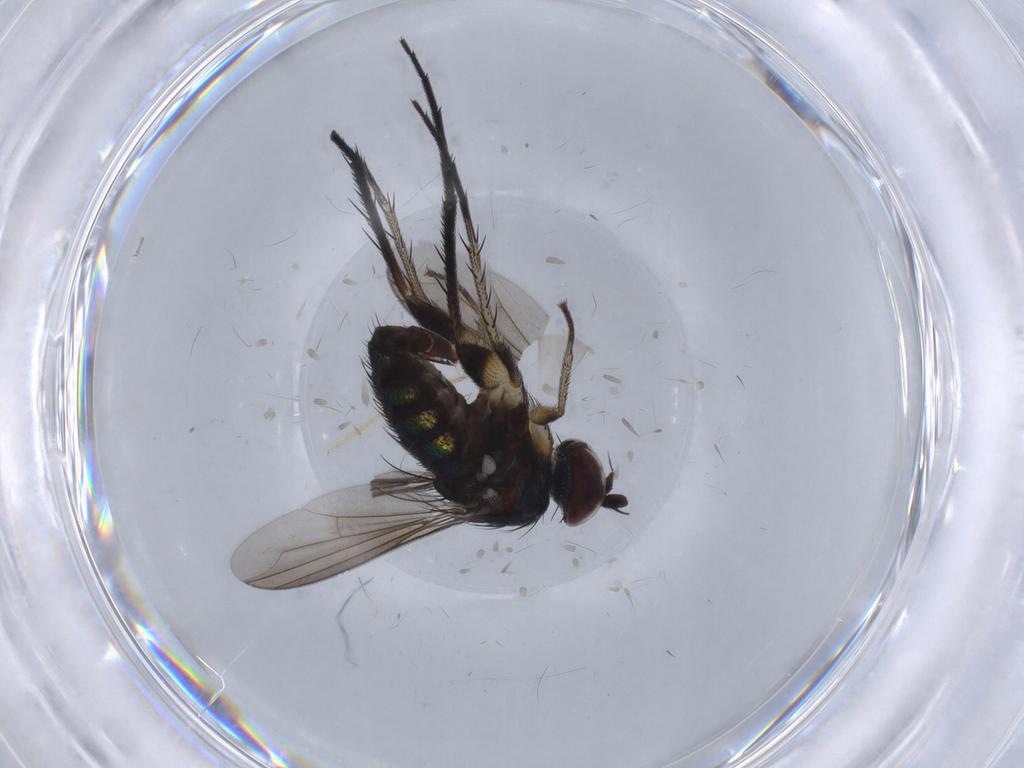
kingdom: Animalia
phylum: Arthropoda
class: Insecta
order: Diptera
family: Dolichopodidae
